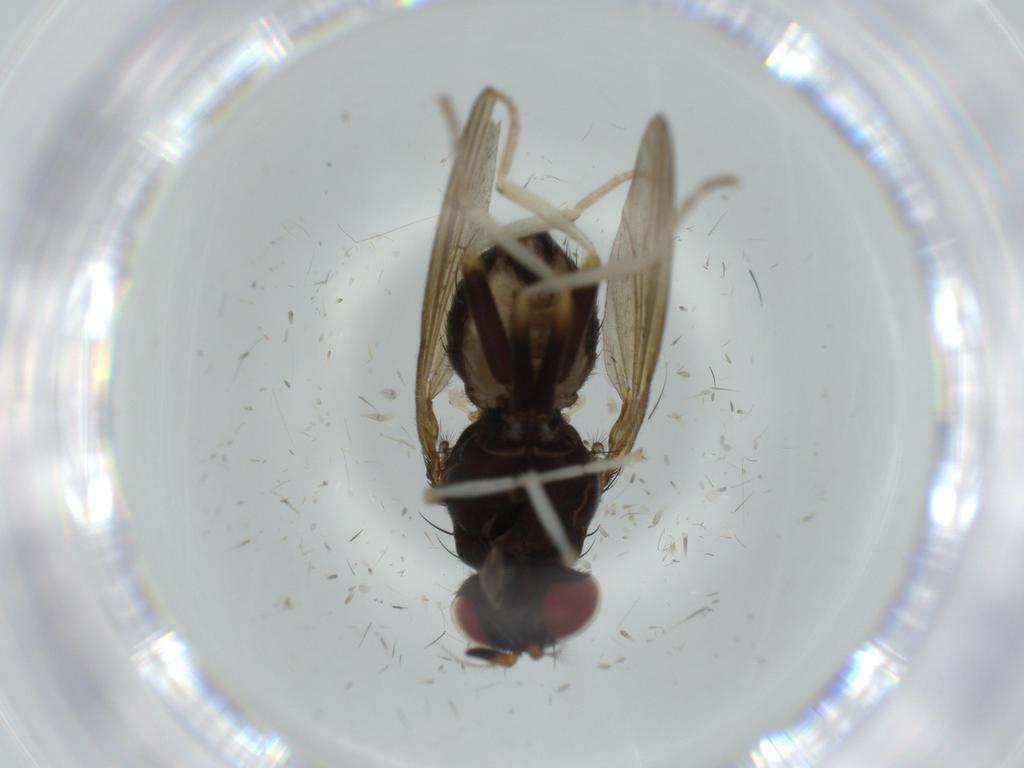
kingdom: Animalia
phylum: Arthropoda
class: Insecta
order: Diptera
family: Phoridae
